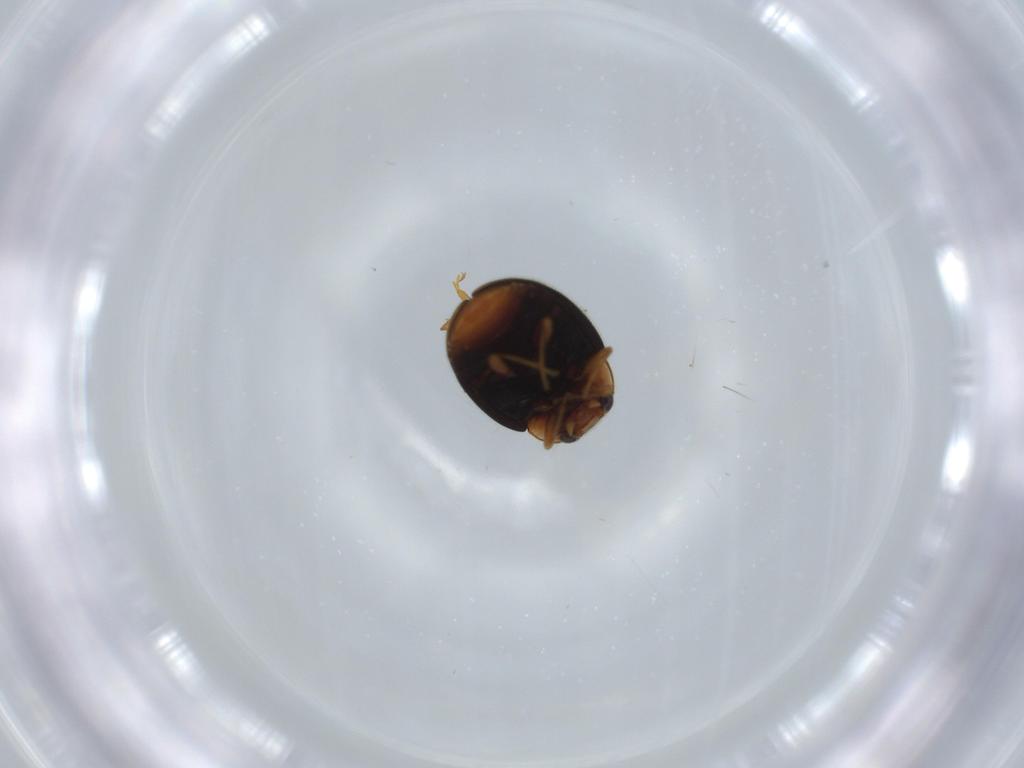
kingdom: Animalia
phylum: Arthropoda
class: Insecta
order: Coleoptera
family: Coccinellidae
